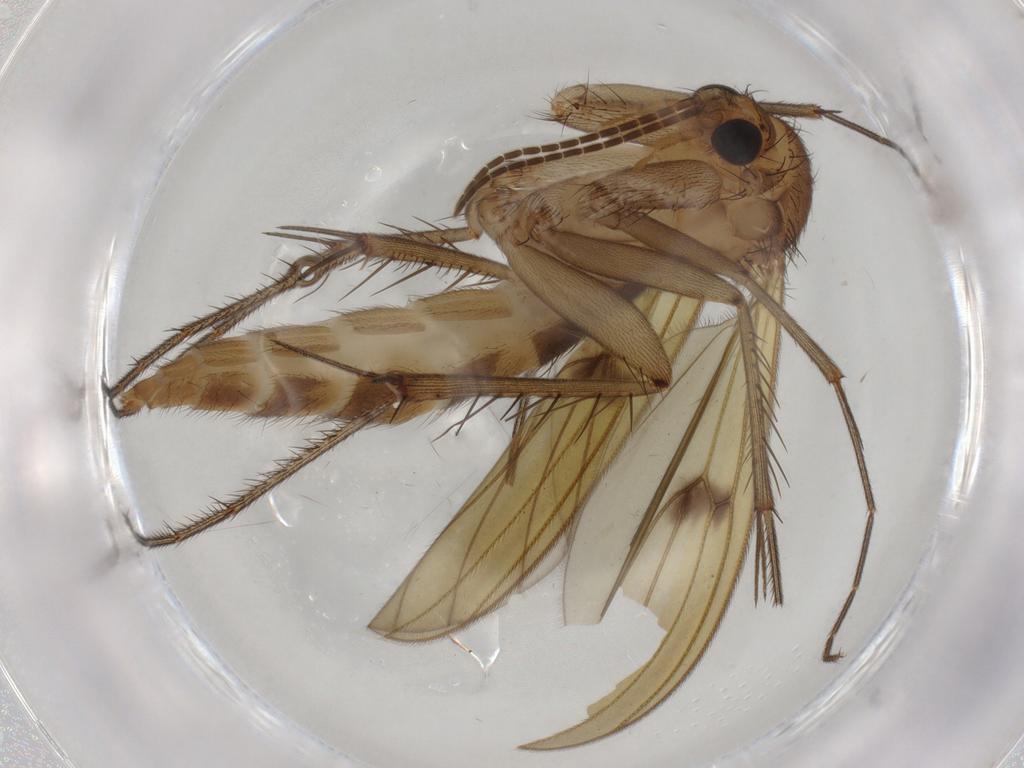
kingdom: Animalia
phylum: Arthropoda
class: Insecta
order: Diptera
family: Mycetophilidae
